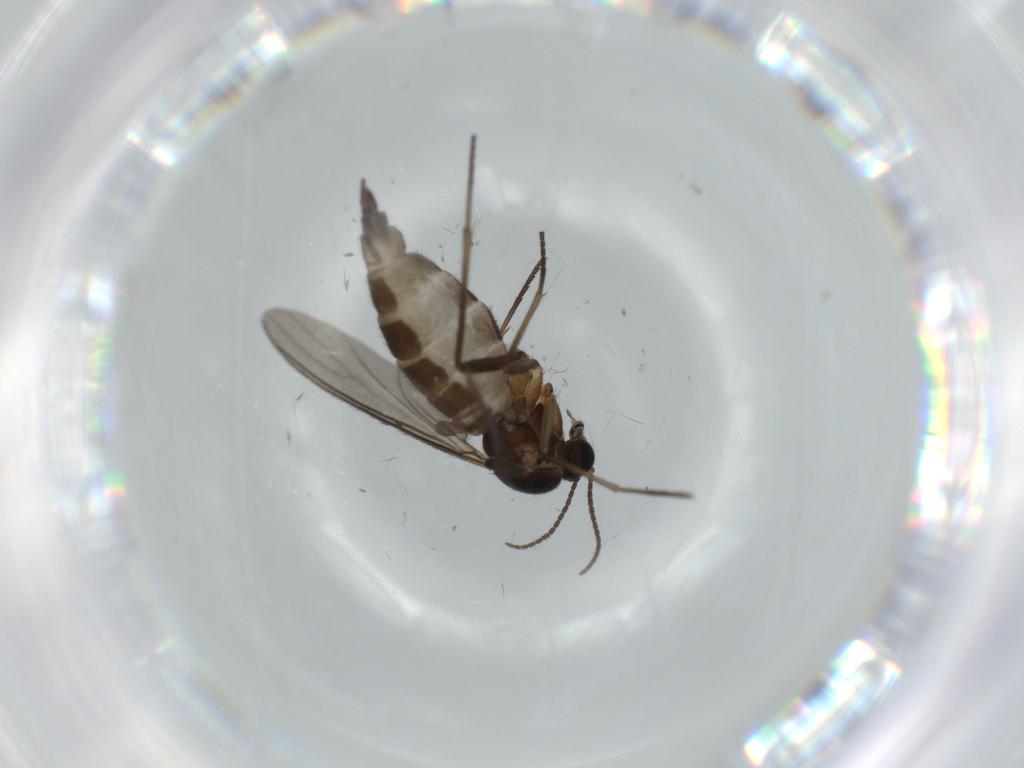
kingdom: Animalia
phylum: Arthropoda
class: Insecta
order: Diptera
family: Sciaridae
